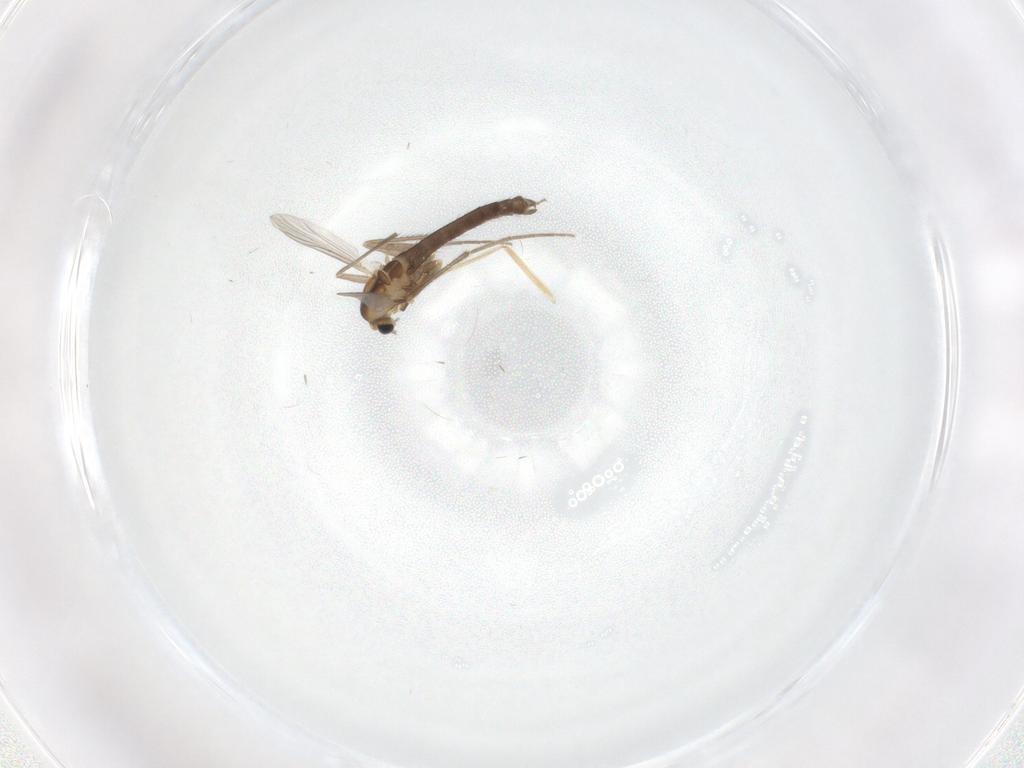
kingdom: Animalia
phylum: Arthropoda
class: Insecta
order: Diptera
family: Chironomidae
